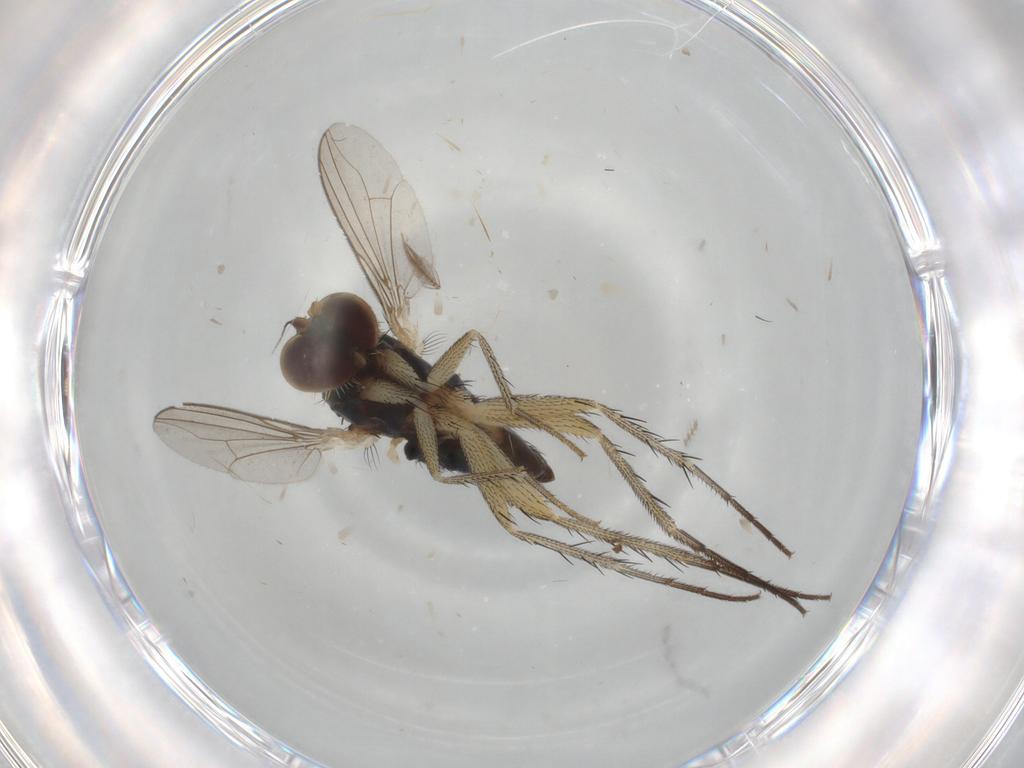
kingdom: Animalia
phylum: Arthropoda
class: Insecta
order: Diptera
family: Dolichopodidae
